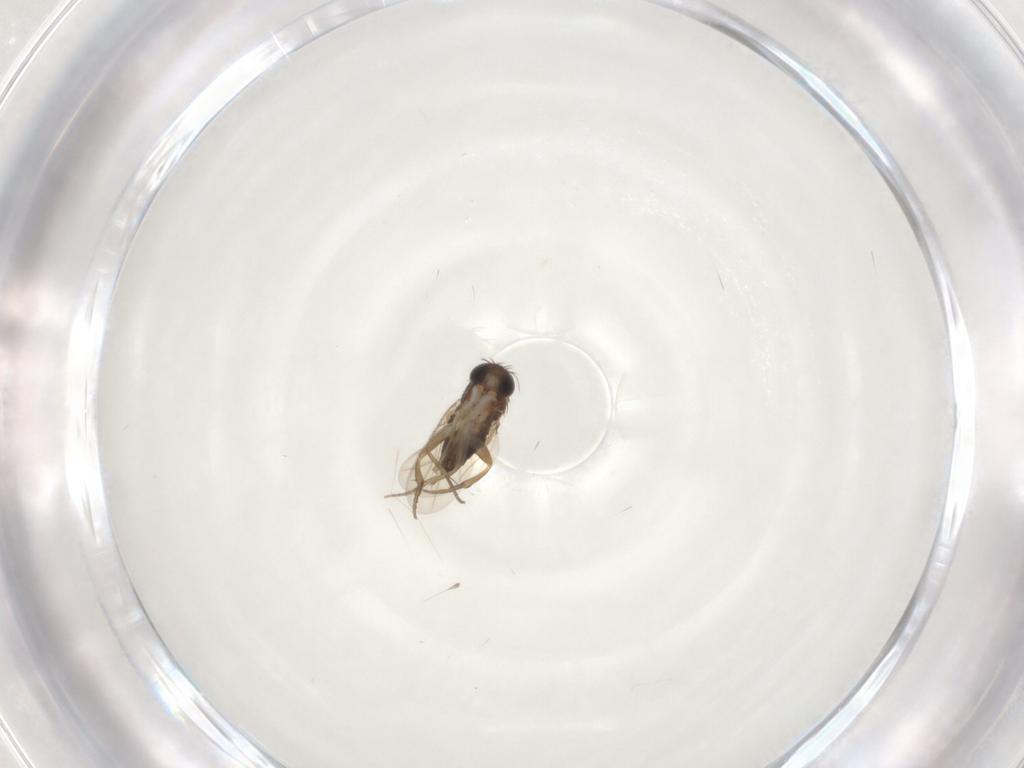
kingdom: Animalia
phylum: Arthropoda
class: Insecta
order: Diptera
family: Phoridae
